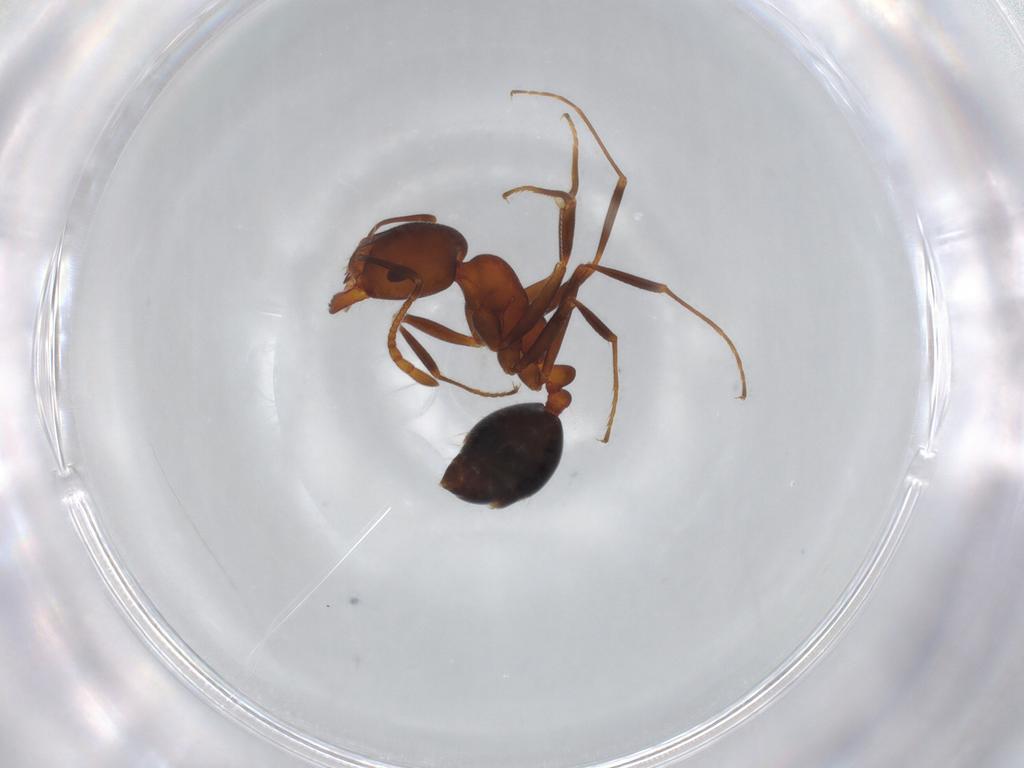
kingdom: Animalia
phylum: Arthropoda
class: Insecta
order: Hymenoptera
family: Formicidae
